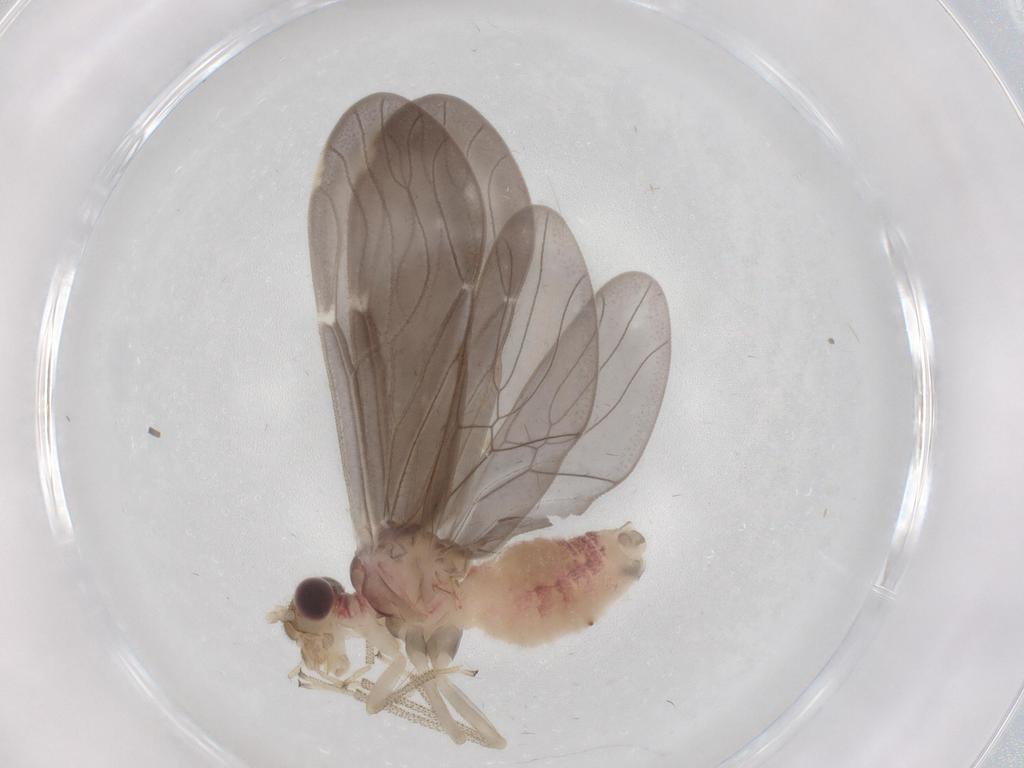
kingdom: Animalia
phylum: Arthropoda
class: Insecta
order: Psocodea
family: Amphipsocidae
